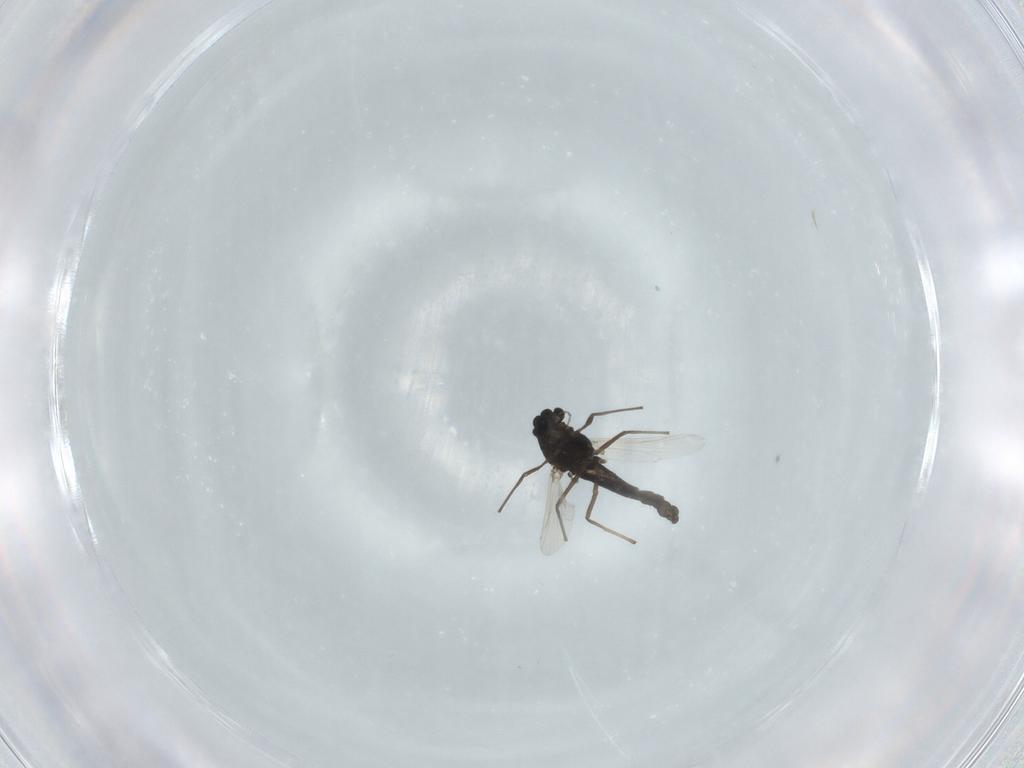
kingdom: Animalia
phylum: Arthropoda
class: Insecta
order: Diptera
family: Chironomidae
